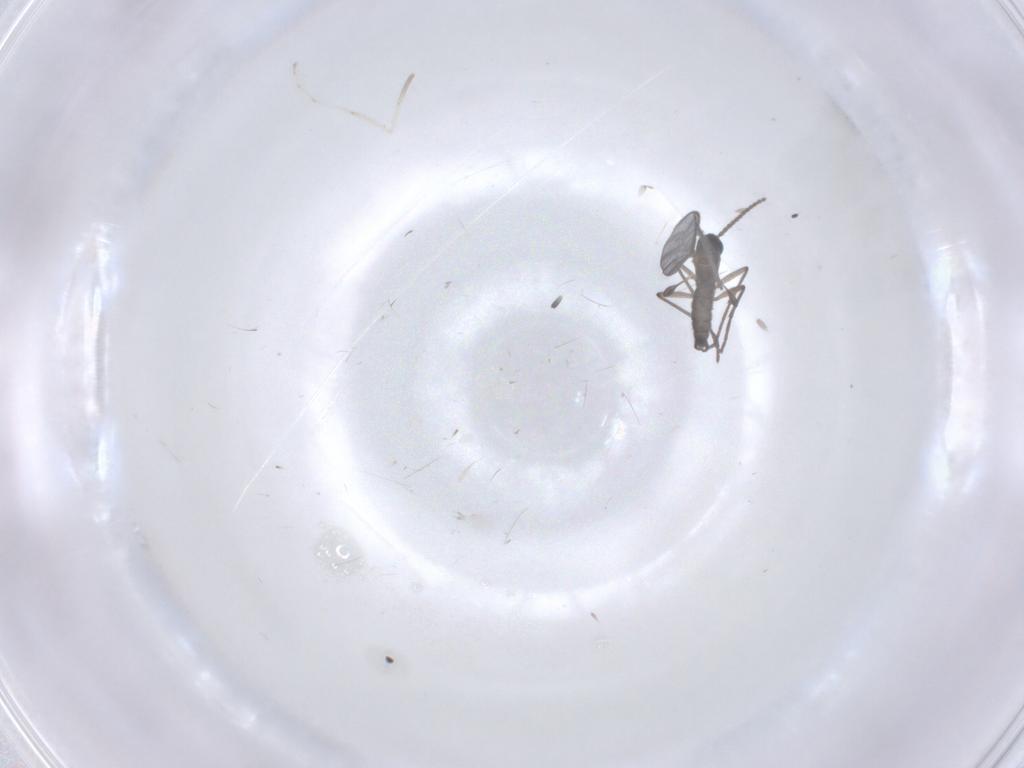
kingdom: Animalia
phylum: Arthropoda
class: Insecta
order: Diptera
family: Sciaridae
